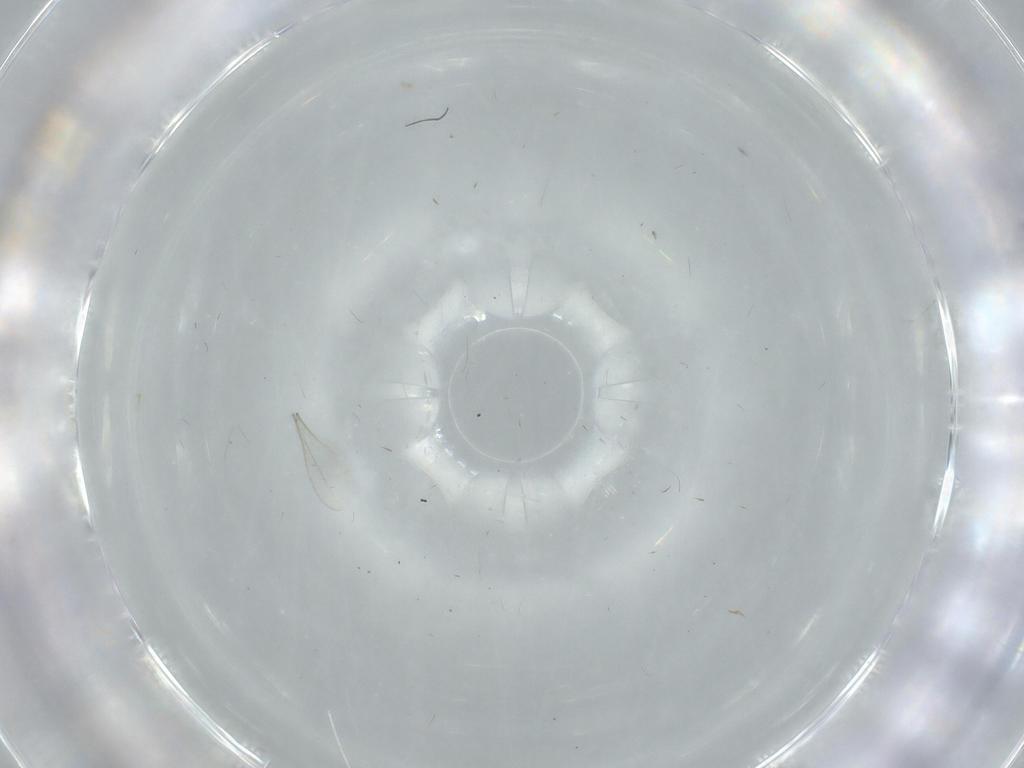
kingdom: Animalia
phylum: Arthropoda
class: Insecta
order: Diptera
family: Cecidomyiidae
